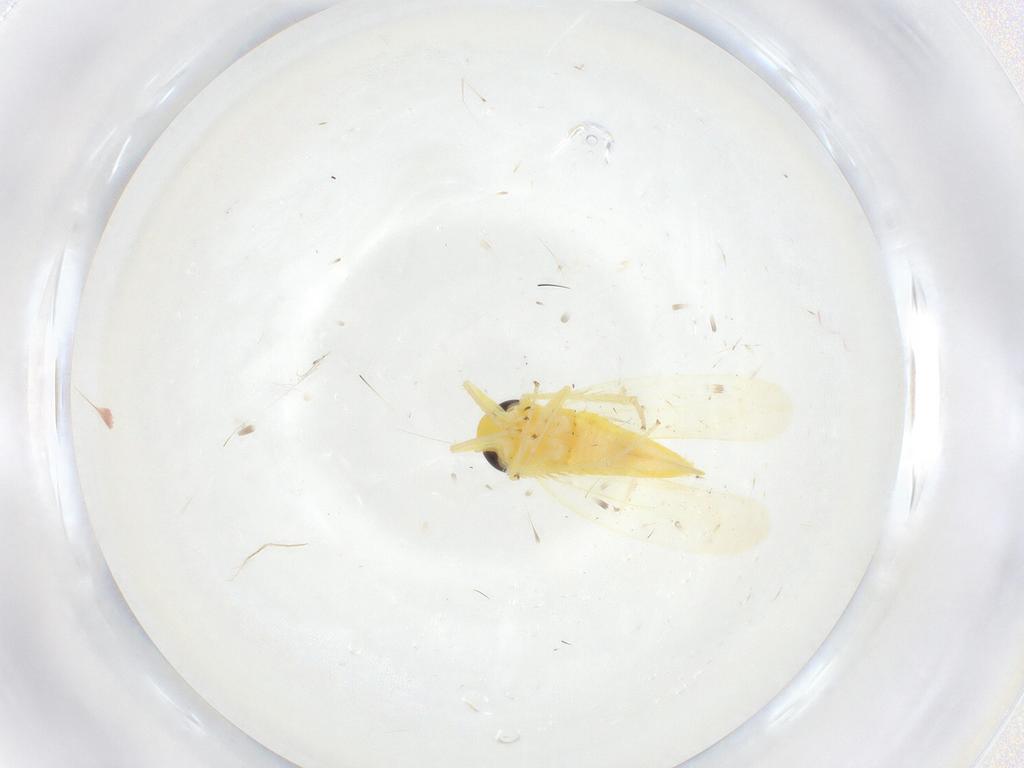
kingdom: Animalia
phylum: Arthropoda
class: Insecta
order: Hemiptera
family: Cicadellidae
